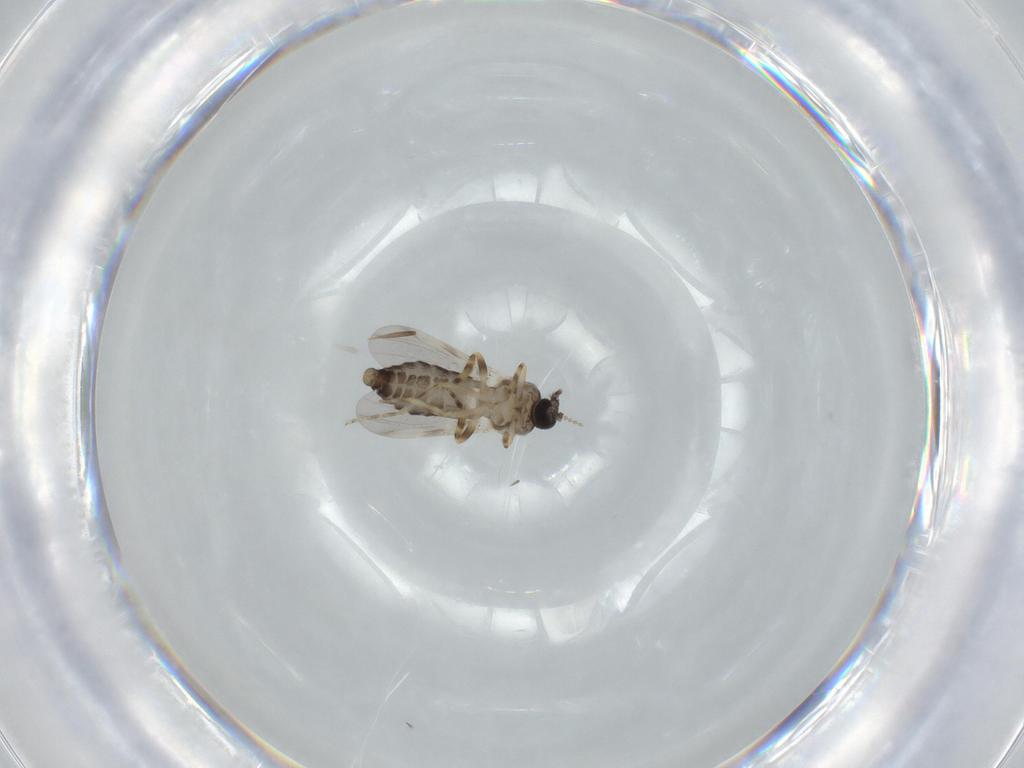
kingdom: Animalia
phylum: Arthropoda
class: Insecta
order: Diptera
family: Ceratopogonidae
